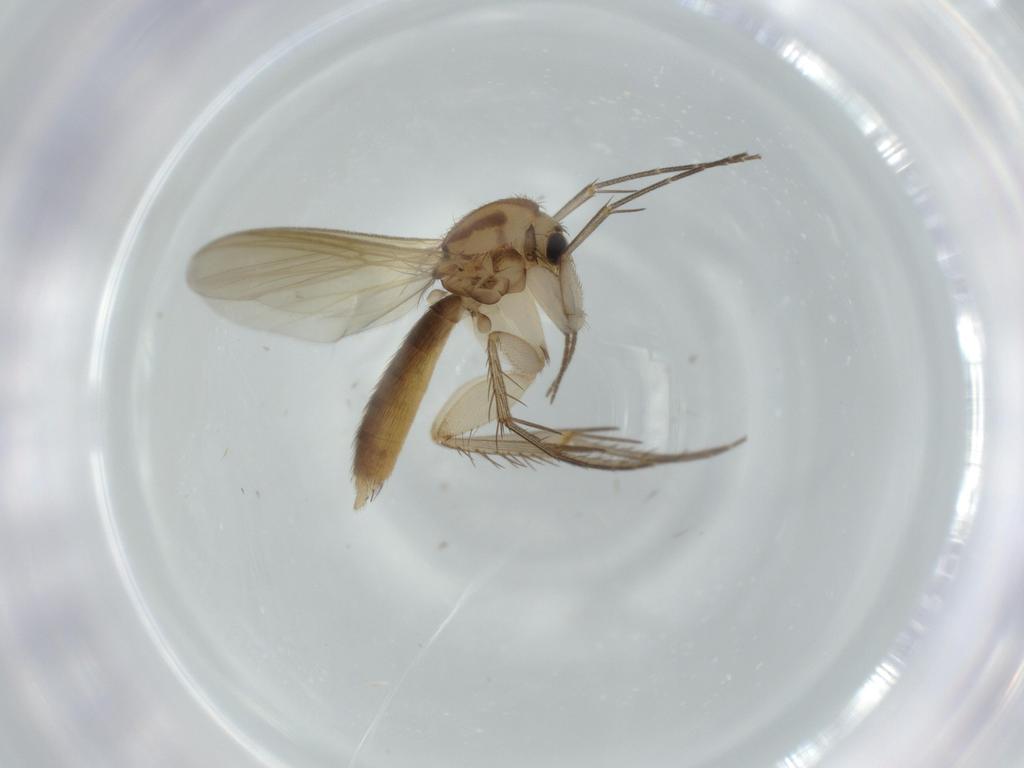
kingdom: Animalia
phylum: Arthropoda
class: Insecta
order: Diptera
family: Mycetophilidae
